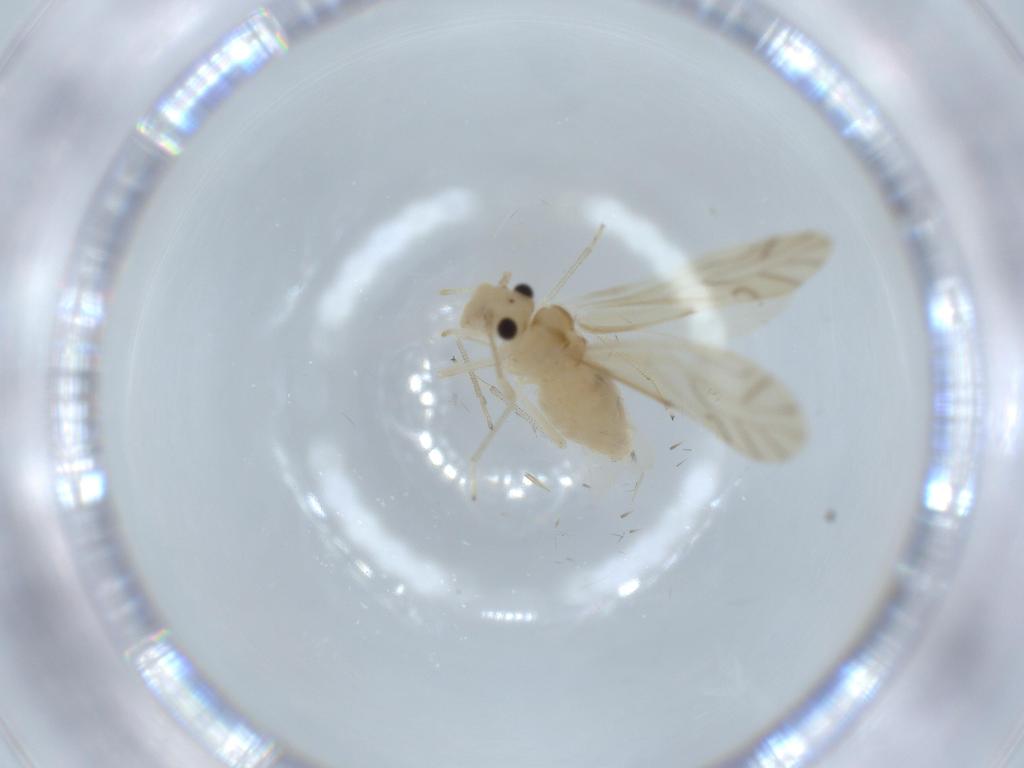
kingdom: Animalia
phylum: Arthropoda
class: Insecta
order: Psocodea
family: Caeciliusidae
